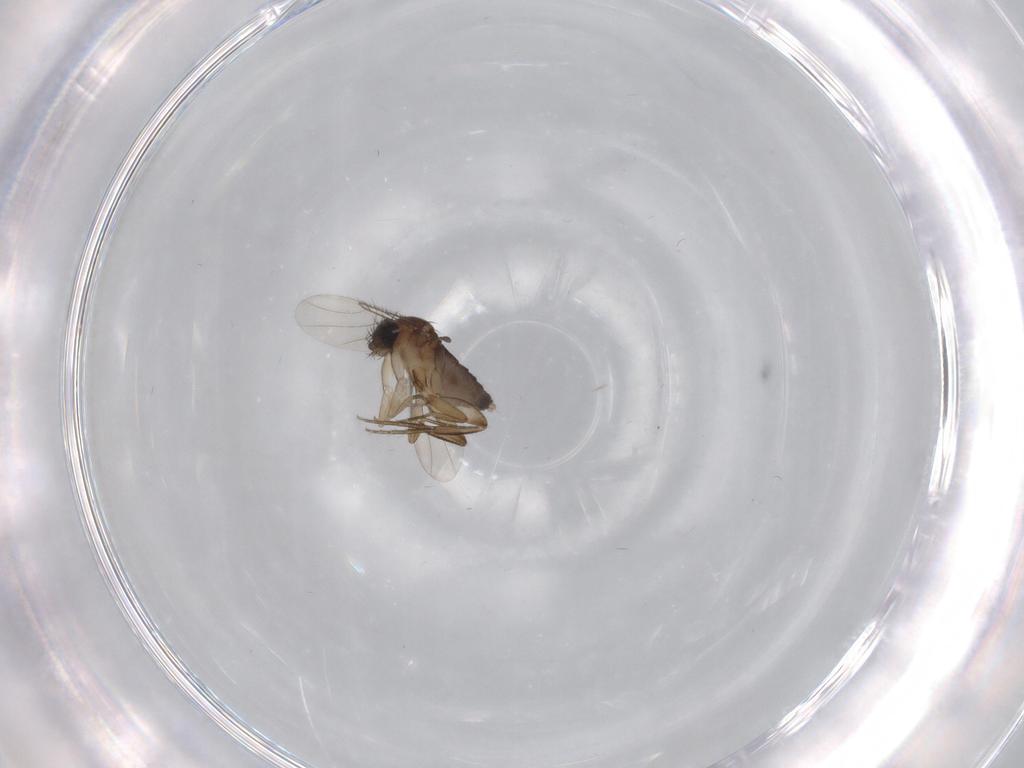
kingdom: Animalia
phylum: Arthropoda
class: Insecta
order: Diptera
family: Phoridae
